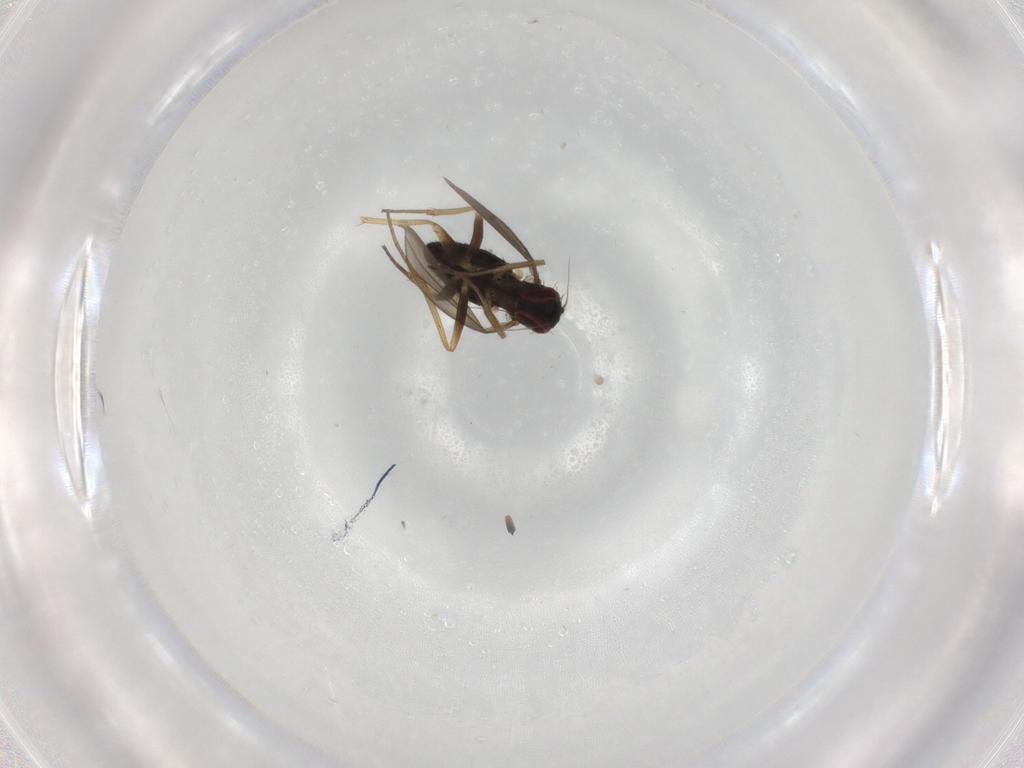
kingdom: Animalia
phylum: Arthropoda
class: Insecta
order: Diptera
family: Dolichopodidae
